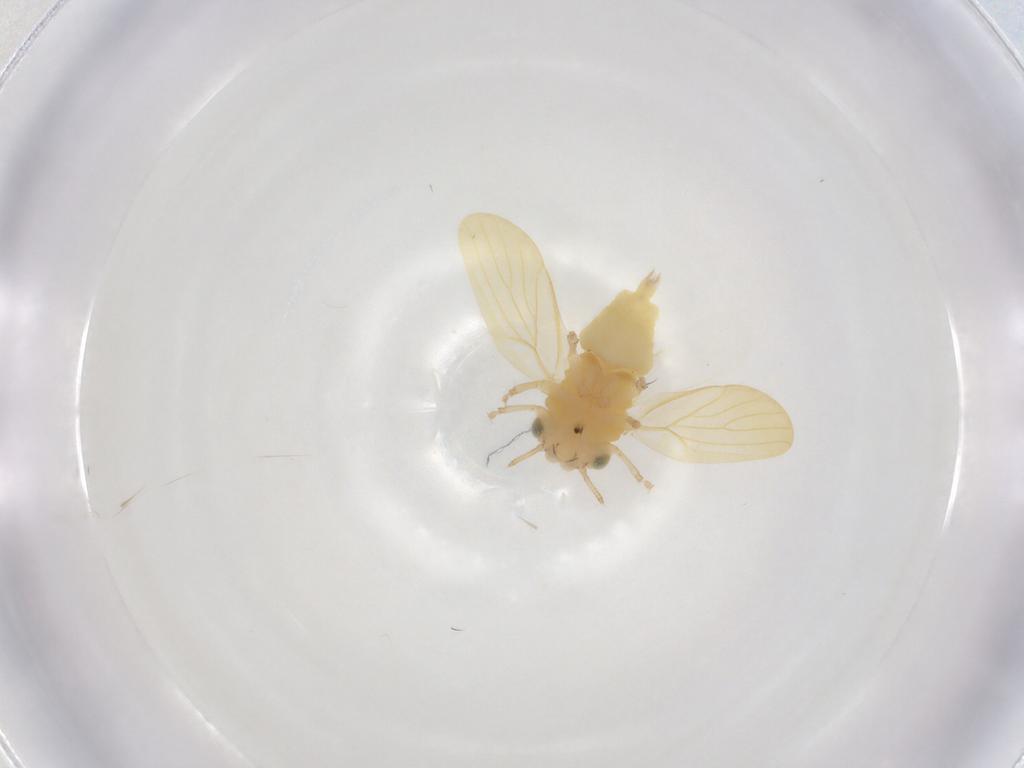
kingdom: Animalia
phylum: Arthropoda
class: Insecta
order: Hemiptera
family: Aphalaridae
